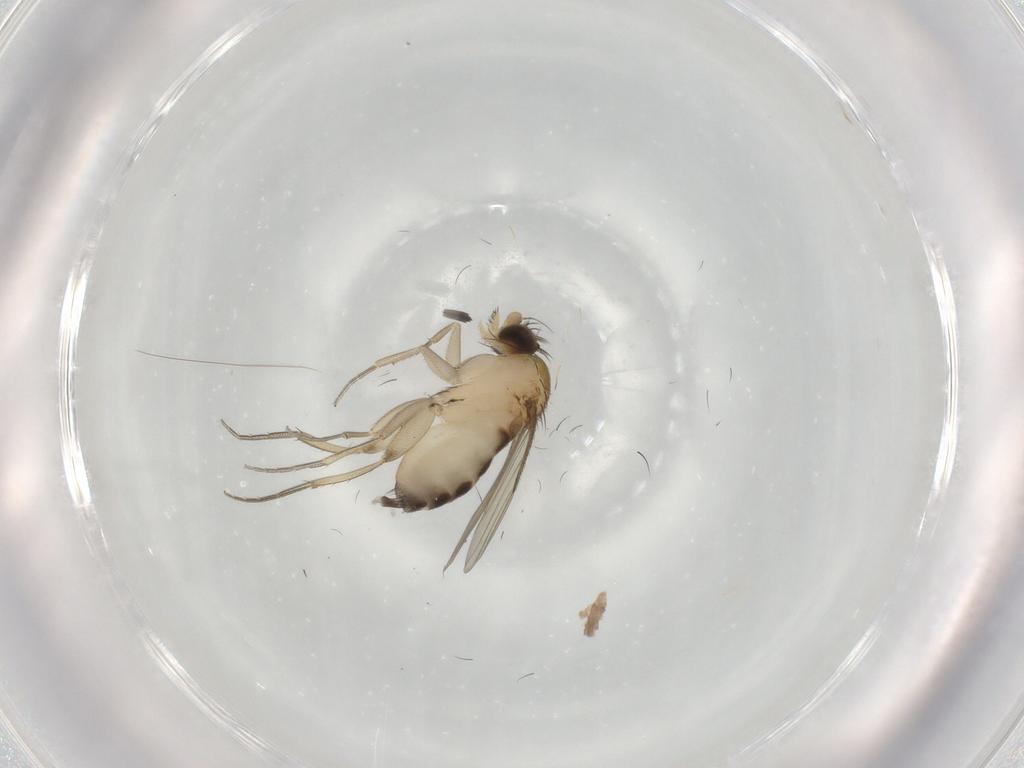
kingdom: Animalia
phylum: Arthropoda
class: Insecta
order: Diptera
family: Phoridae
